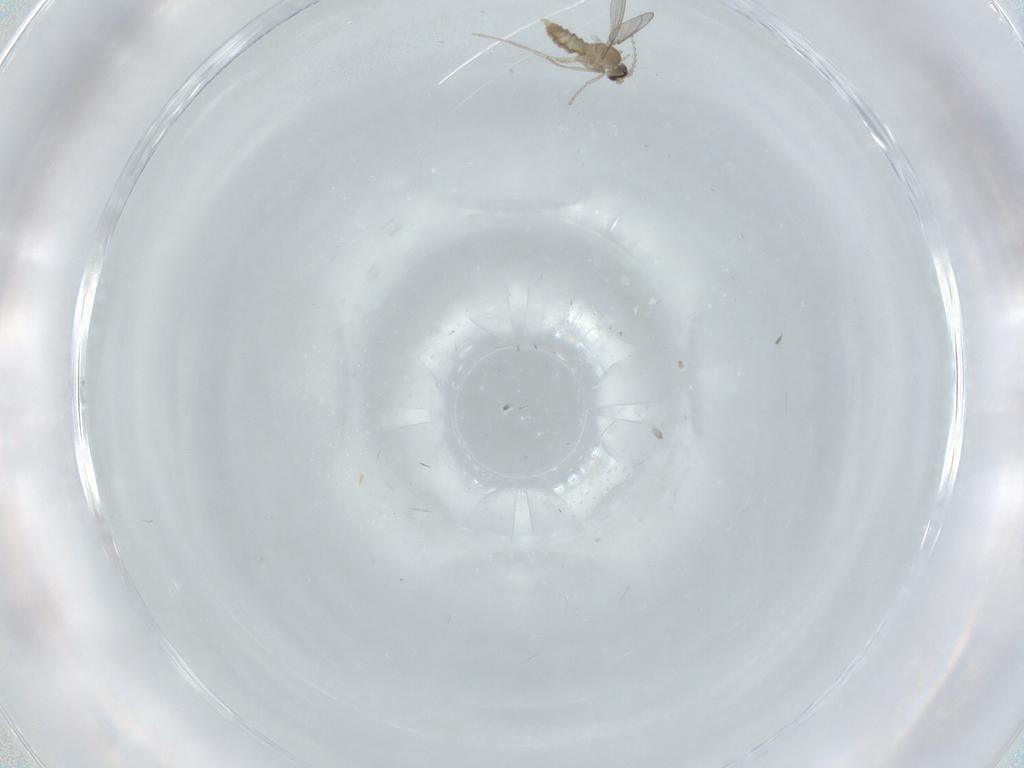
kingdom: Animalia
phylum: Arthropoda
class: Insecta
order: Diptera
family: Cecidomyiidae
